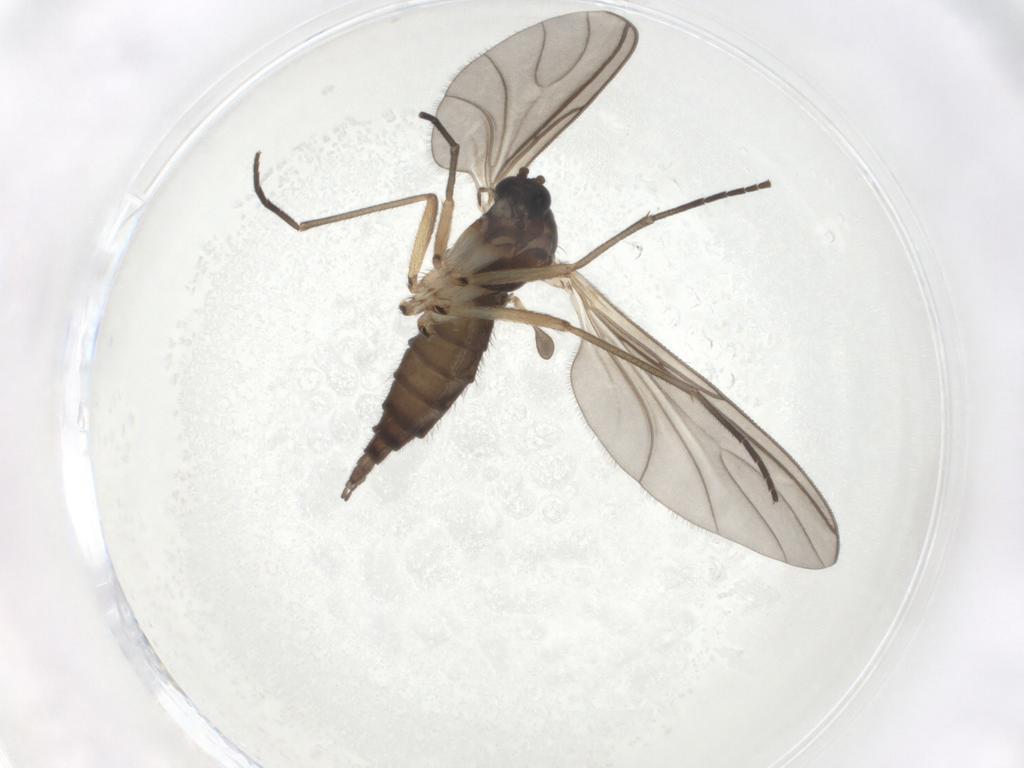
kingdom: Animalia
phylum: Arthropoda
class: Insecta
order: Diptera
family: Sciaridae
